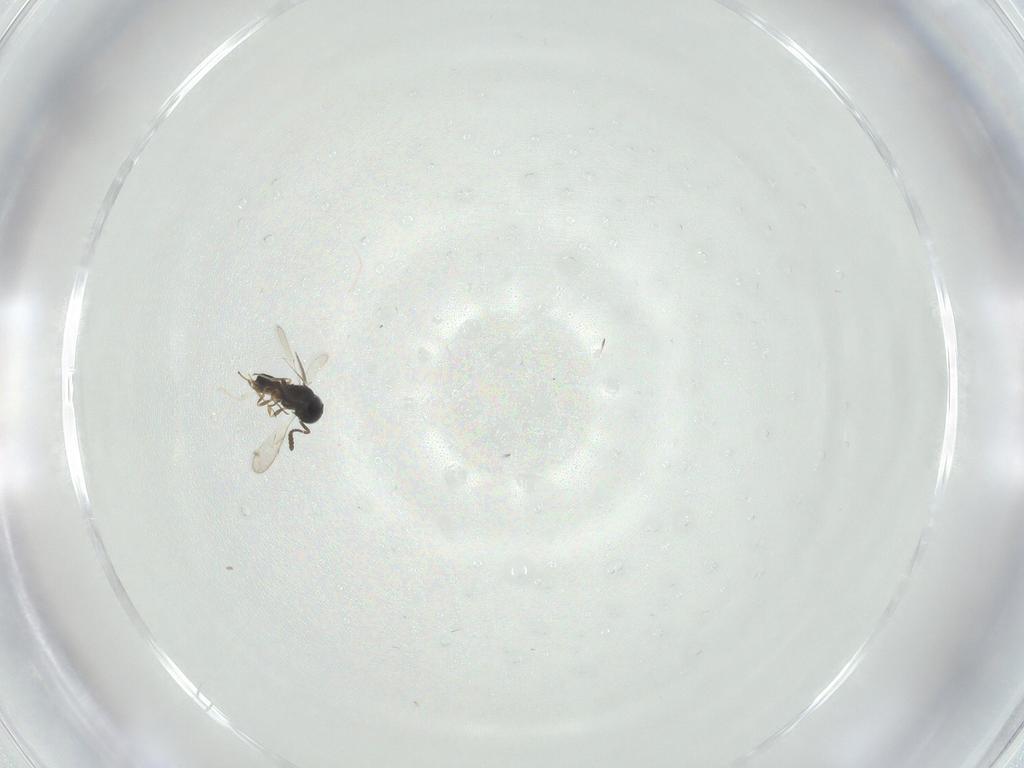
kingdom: Animalia
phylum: Arthropoda
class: Insecta
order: Hymenoptera
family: Scelionidae
